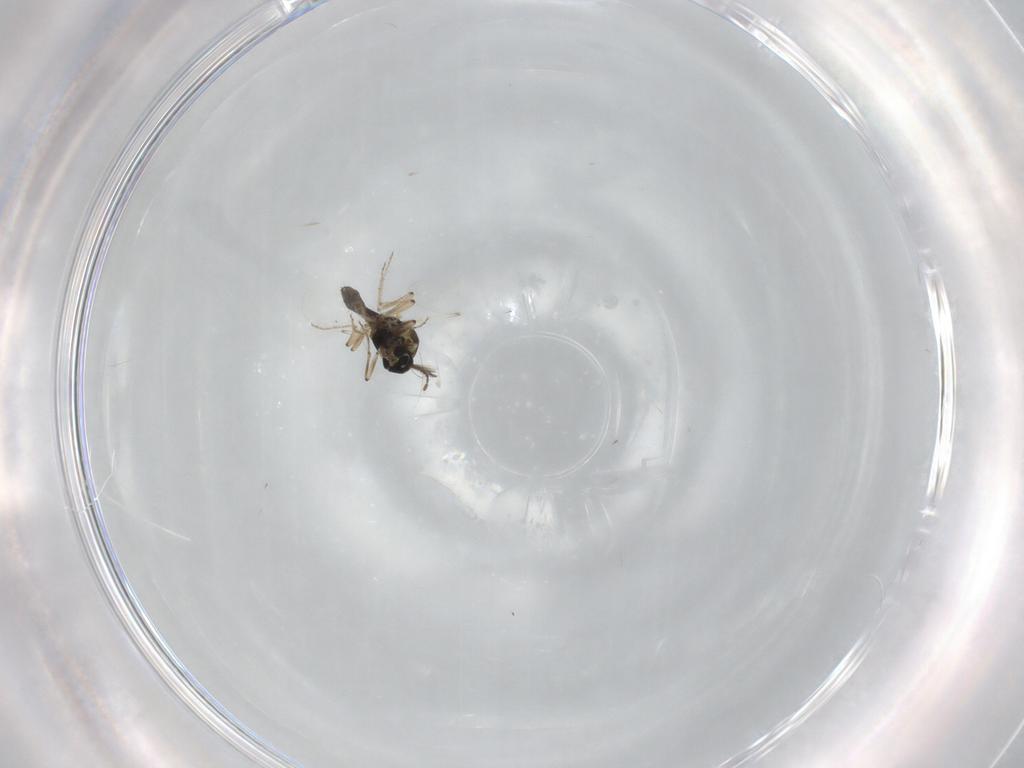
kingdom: Animalia
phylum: Arthropoda
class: Insecta
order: Diptera
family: Ceratopogonidae
